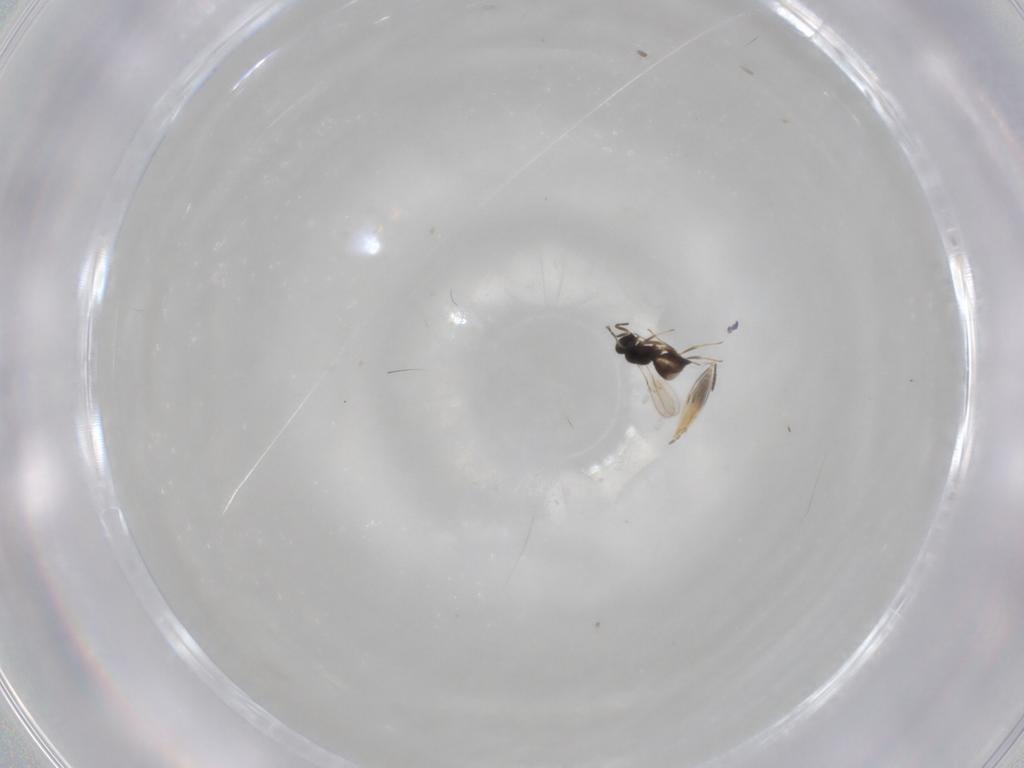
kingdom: Animalia
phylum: Arthropoda
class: Insecta
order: Hymenoptera
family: Scelionidae
